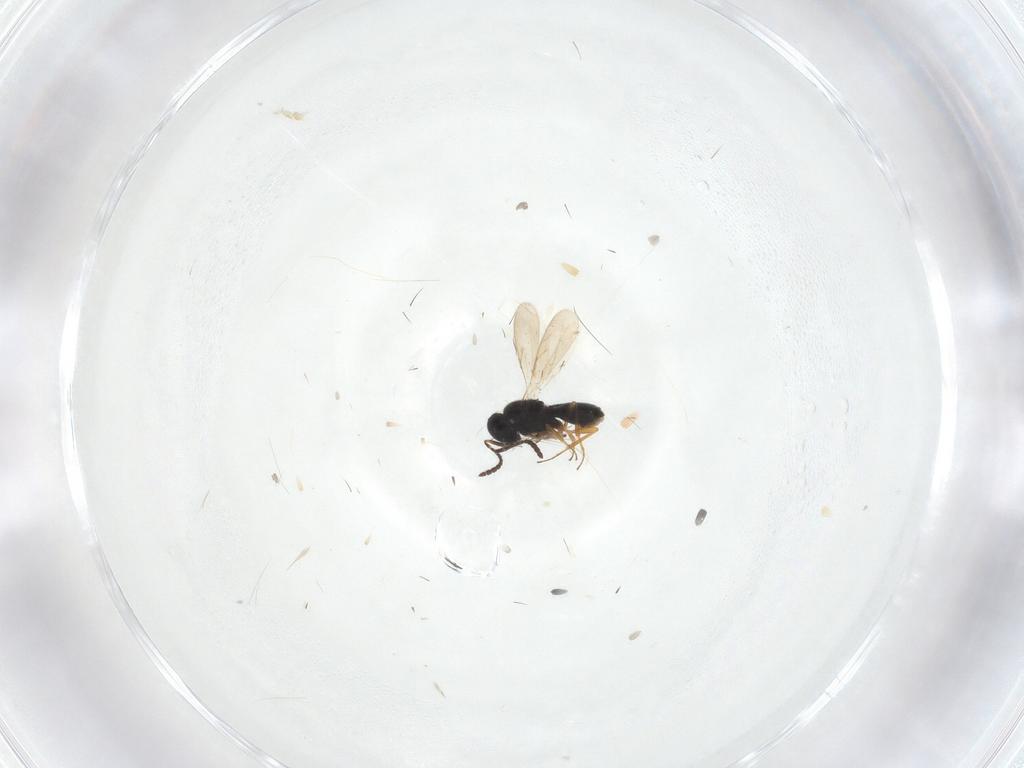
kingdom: Animalia
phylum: Arthropoda
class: Insecta
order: Hymenoptera
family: Scelionidae
